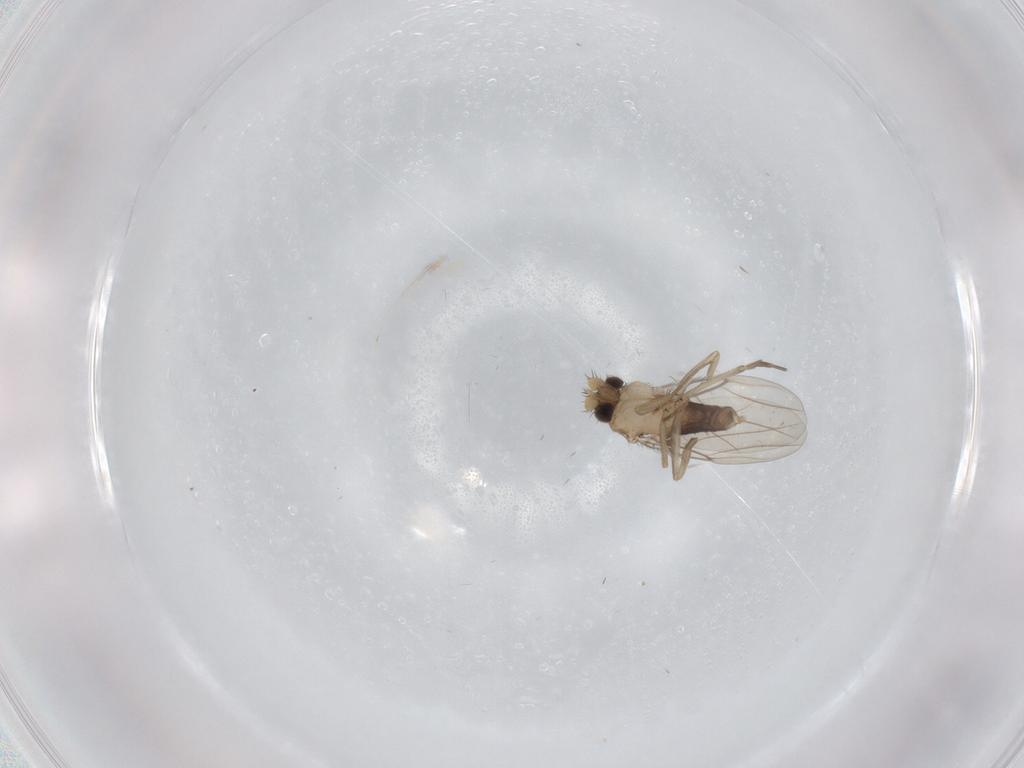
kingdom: Animalia
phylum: Arthropoda
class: Insecta
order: Diptera
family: Phoridae
